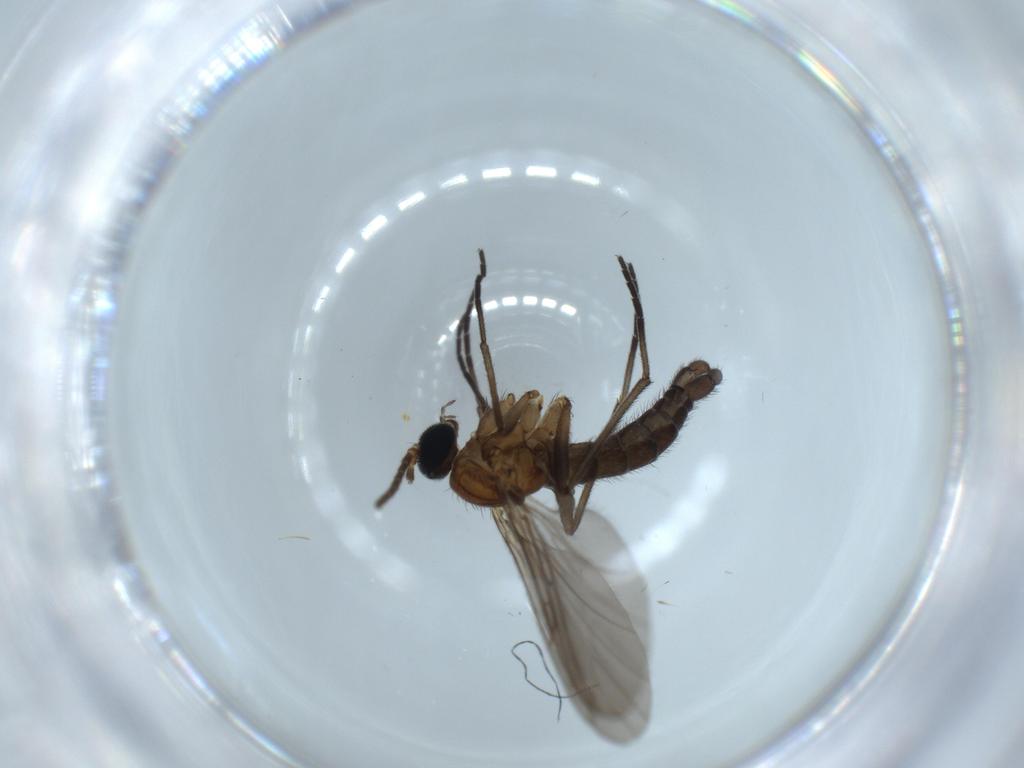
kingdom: Animalia
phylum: Arthropoda
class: Insecta
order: Diptera
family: Sciaridae
